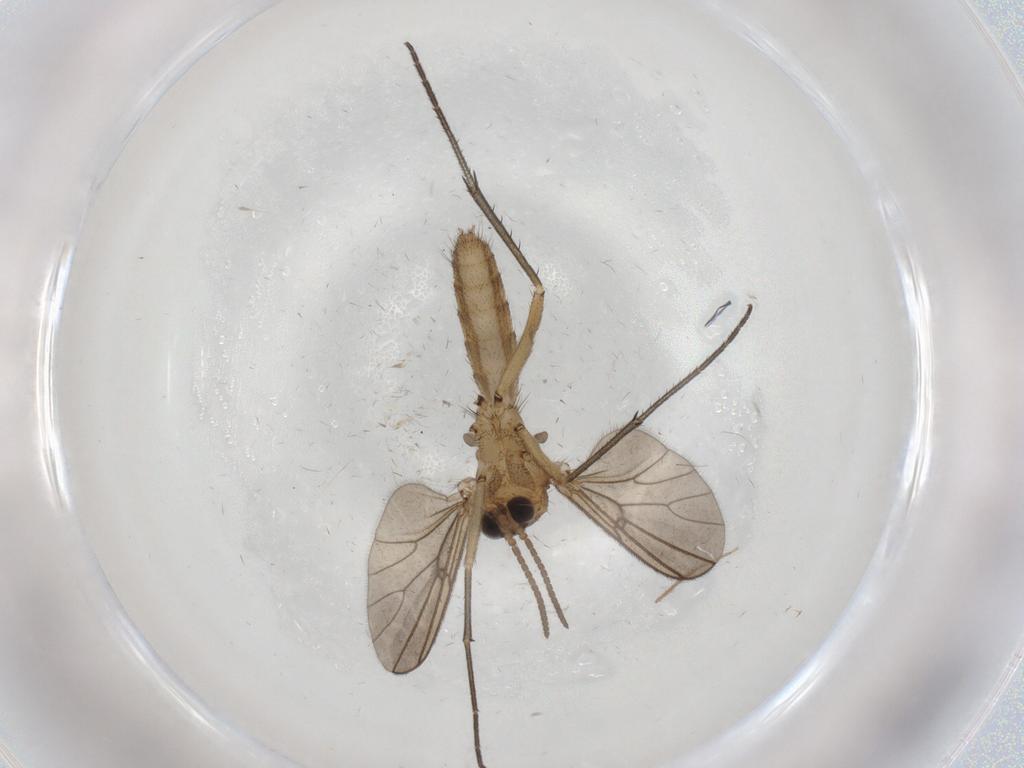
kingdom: Animalia
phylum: Arthropoda
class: Insecta
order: Diptera
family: Mycetophilidae
